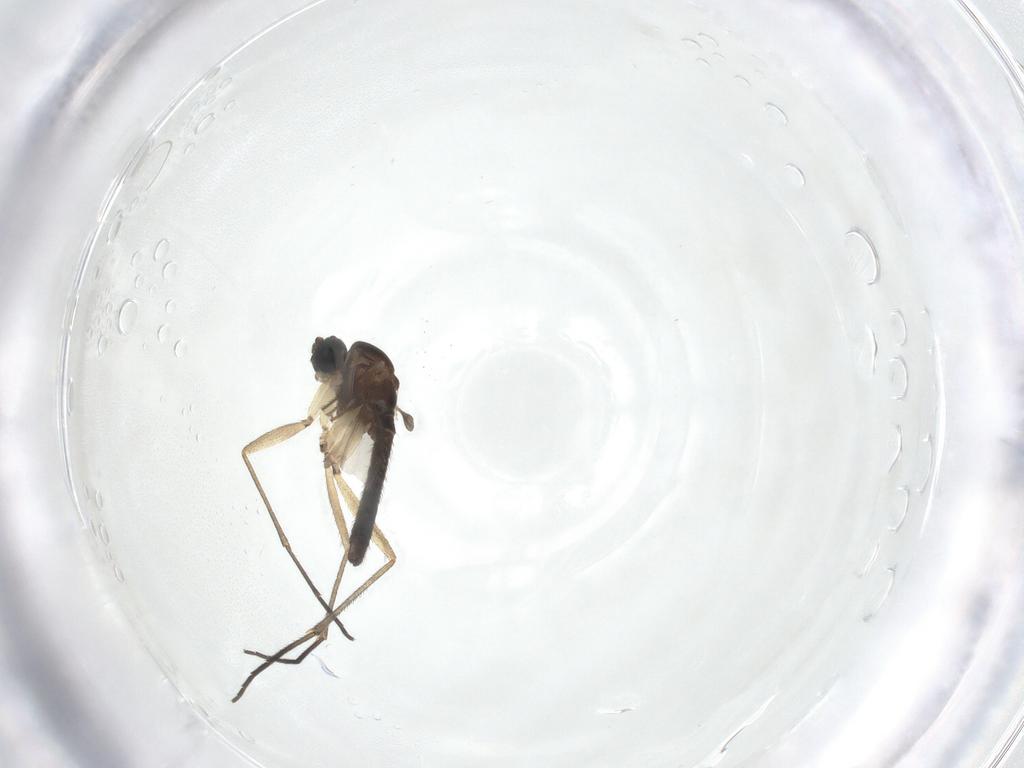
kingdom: Animalia
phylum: Arthropoda
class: Insecta
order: Diptera
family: Sciaridae
